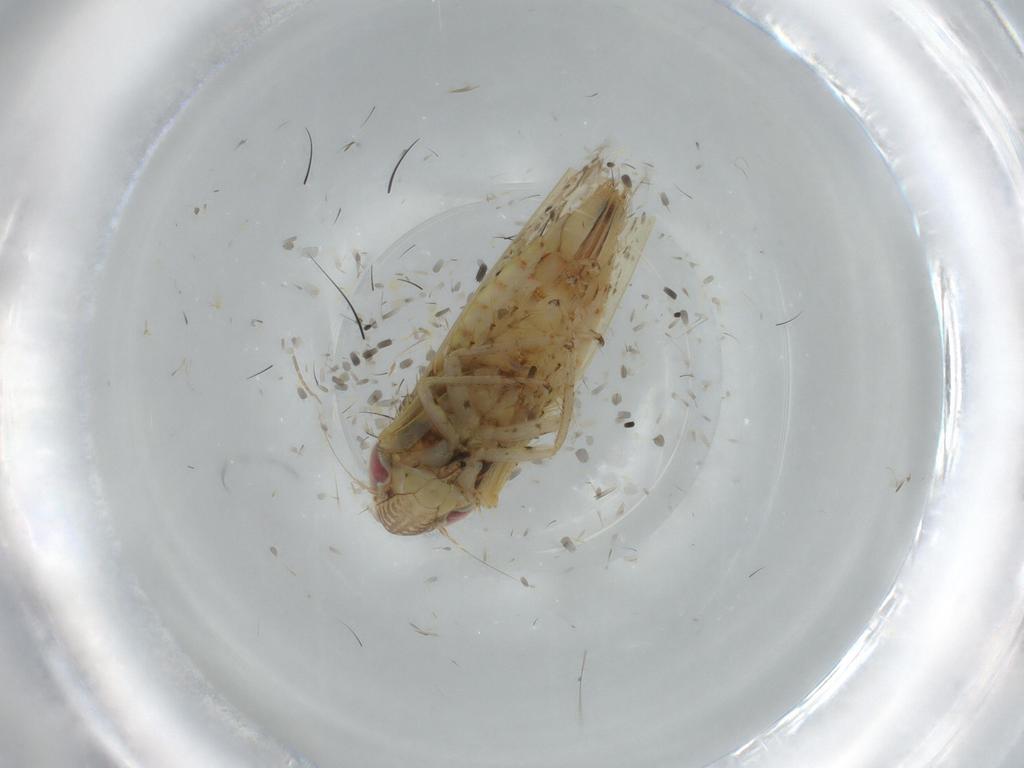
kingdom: Animalia
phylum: Arthropoda
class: Insecta
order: Hemiptera
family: Cicadellidae
